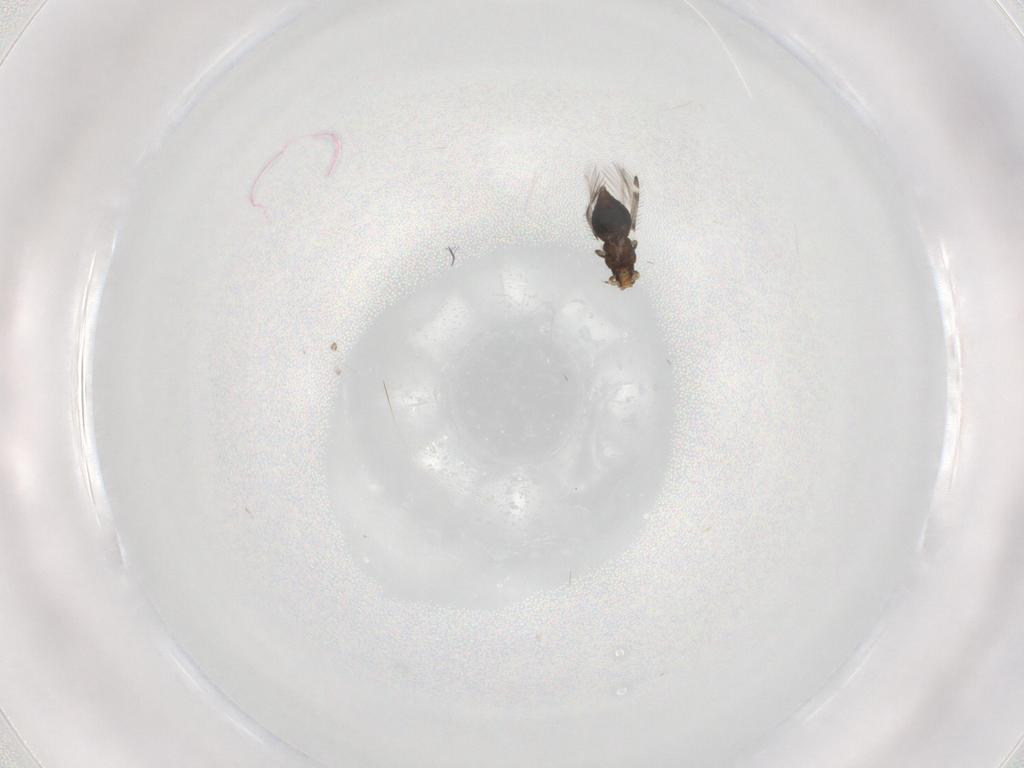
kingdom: Animalia
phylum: Arthropoda
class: Insecta
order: Thysanoptera
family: Thripidae
